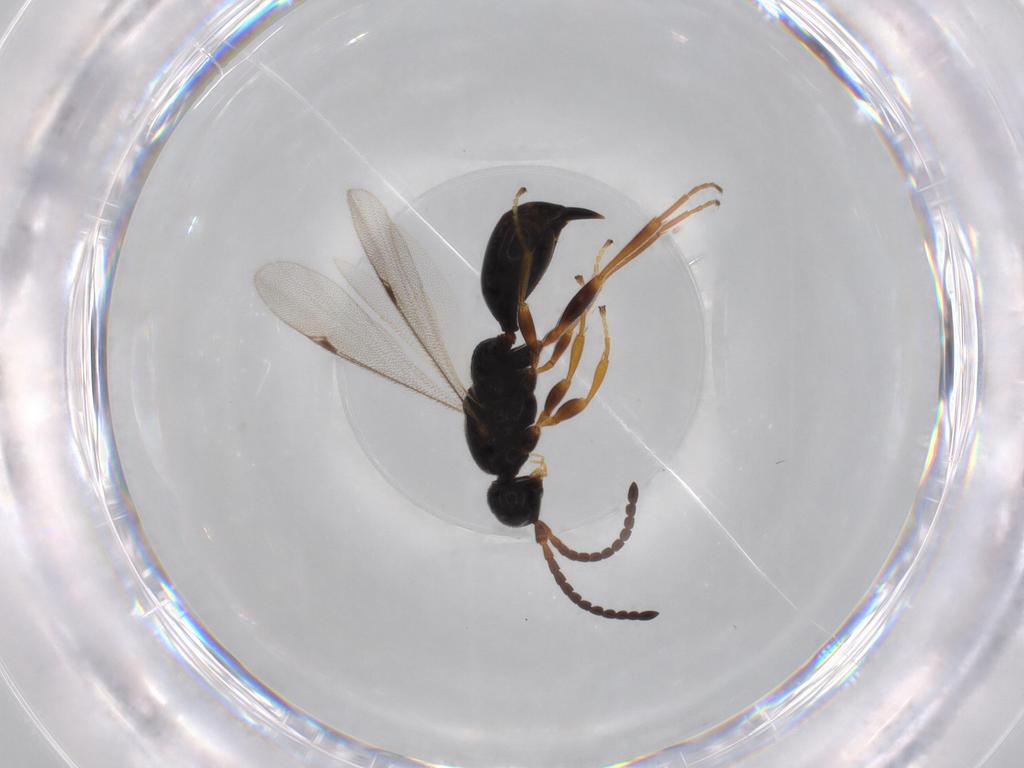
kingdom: Animalia
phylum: Arthropoda
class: Insecta
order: Hymenoptera
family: Proctotrupidae
